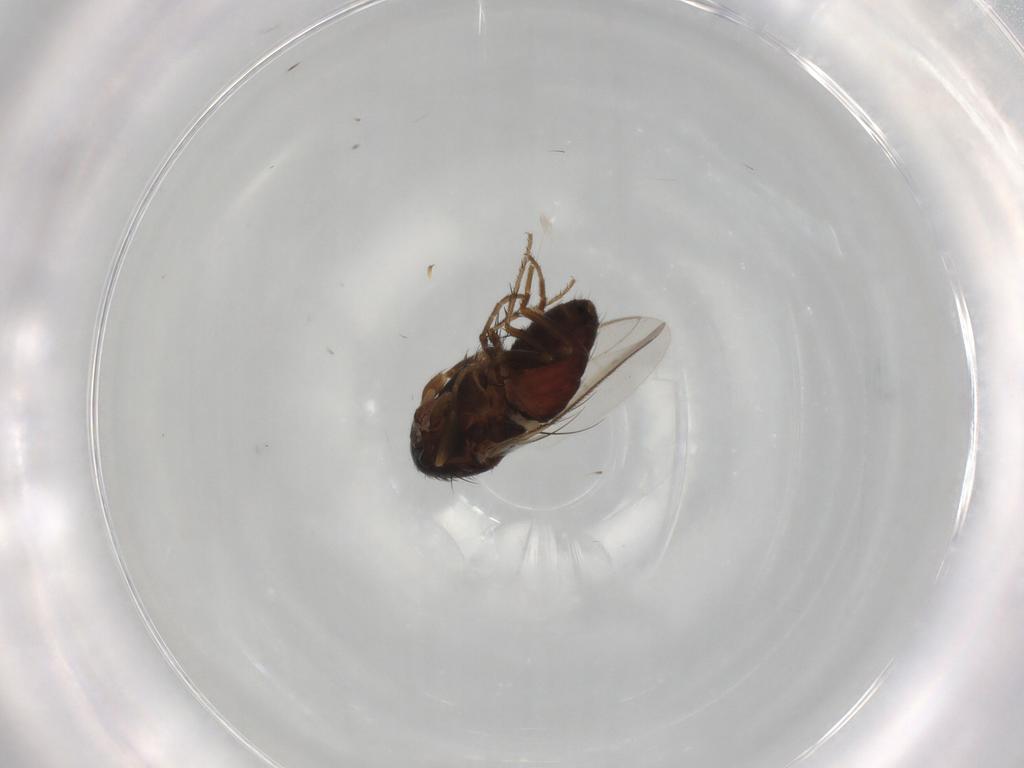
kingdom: Animalia
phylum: Arthropoda
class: Insecta
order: Diptera
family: Sphaeroceridae
